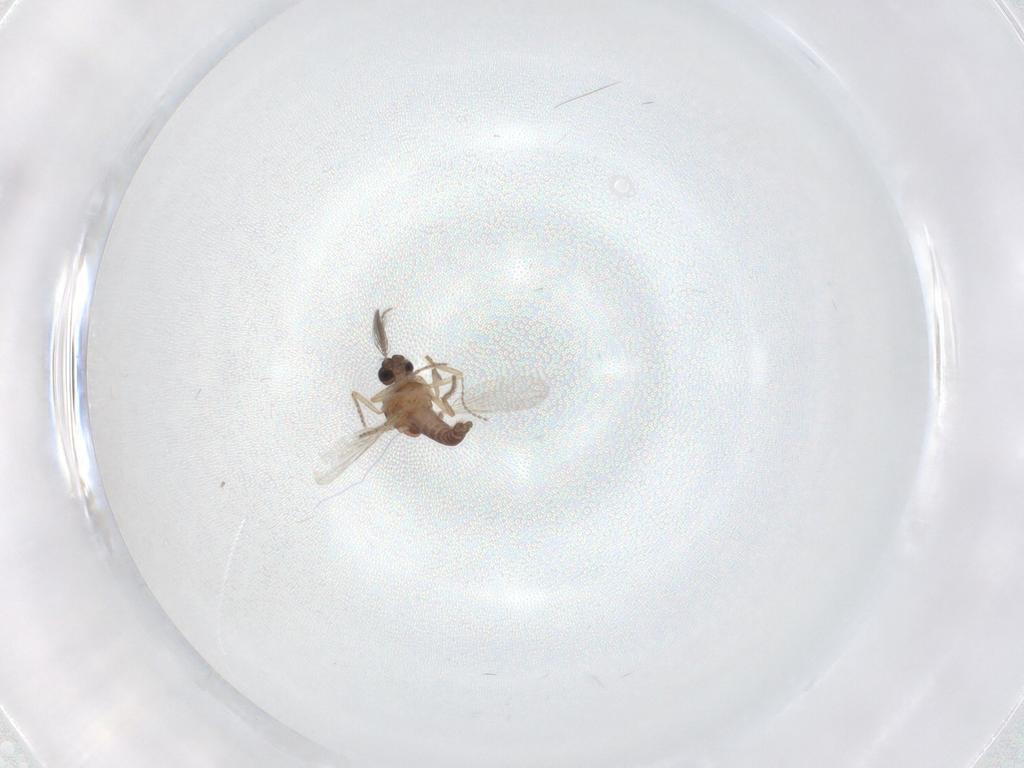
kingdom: Animalia
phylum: Arthropoda
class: Insecta
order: Diptera
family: Ceratopogonidae
